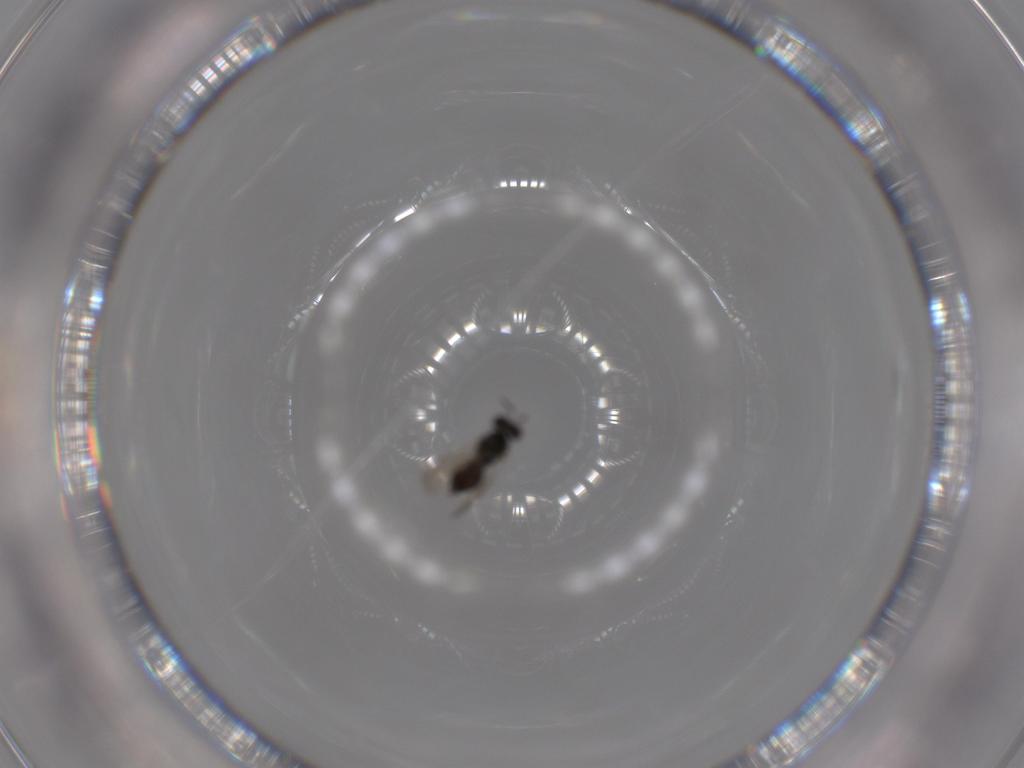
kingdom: Animalia
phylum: Arthropoda
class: Insecta
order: Hymenoptera
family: Eulophidae
